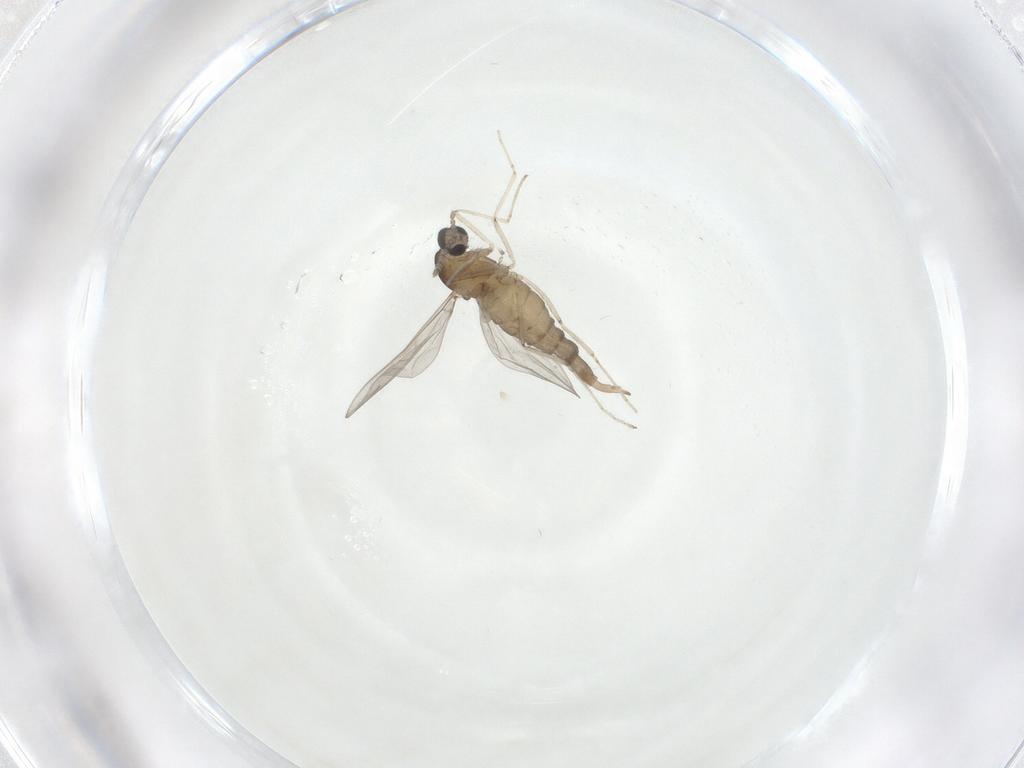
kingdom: Animalia
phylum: Arthropoda
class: Insecta
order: Diptera
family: Cecidomyiidae
